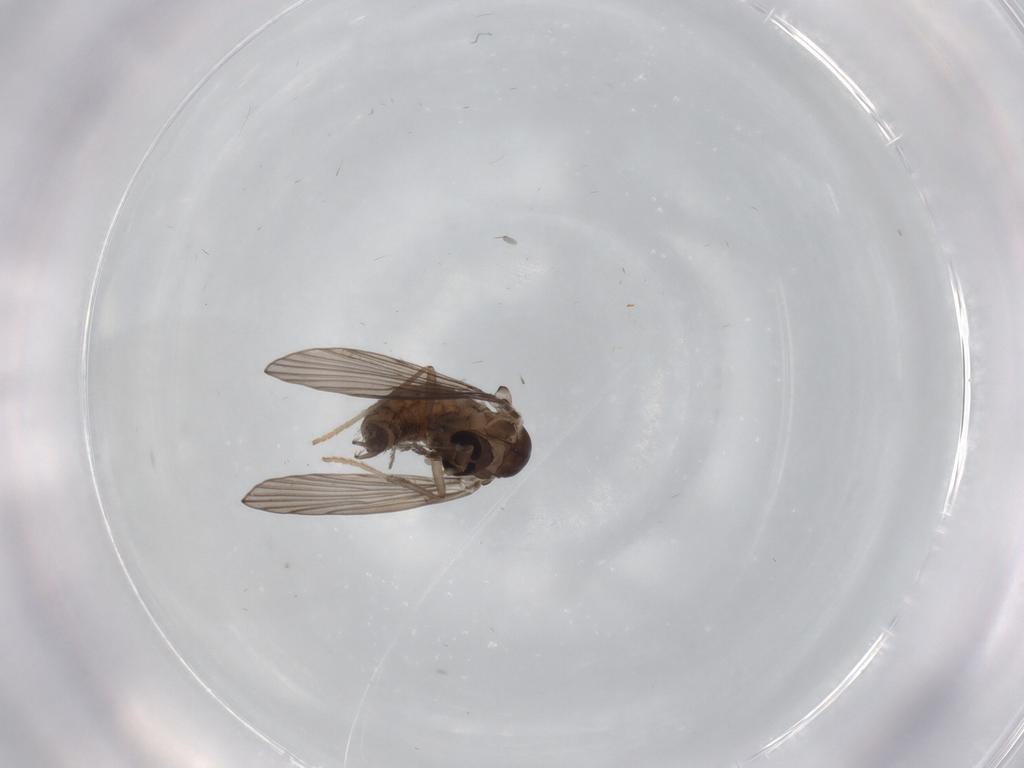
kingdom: Animalia
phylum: Arthropoda
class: Insecta
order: Diptera
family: Psychodidae
